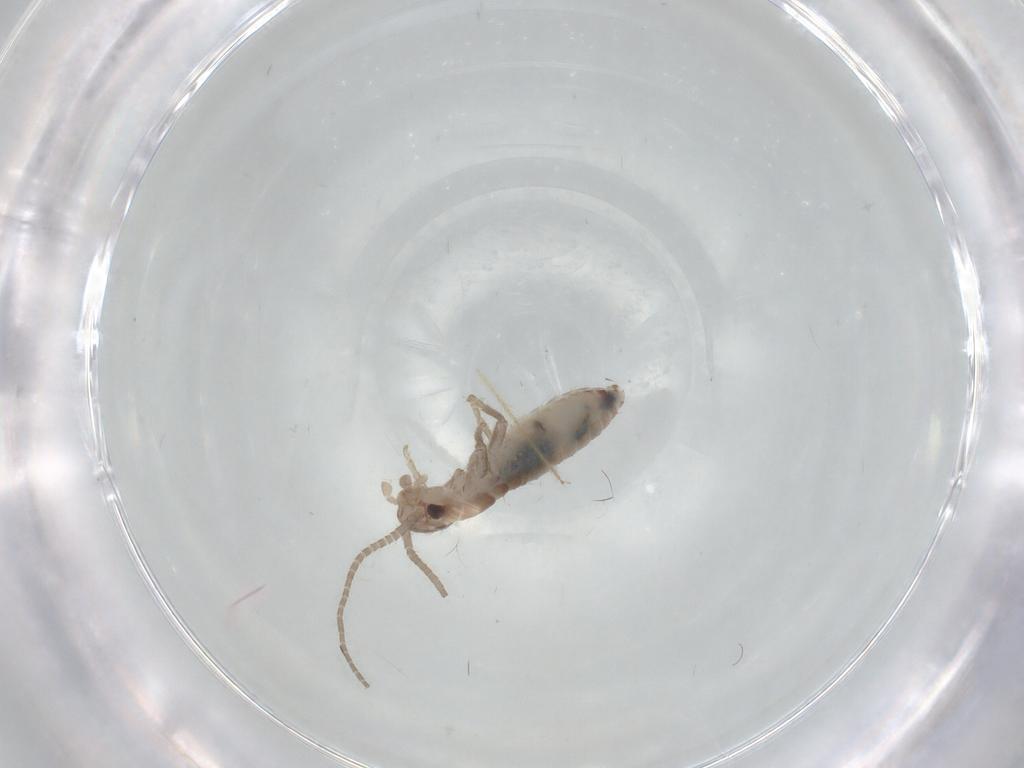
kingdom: Animalia
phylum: Arthropoda
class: Insecta
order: Orthoptera
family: Mogoplistidae
